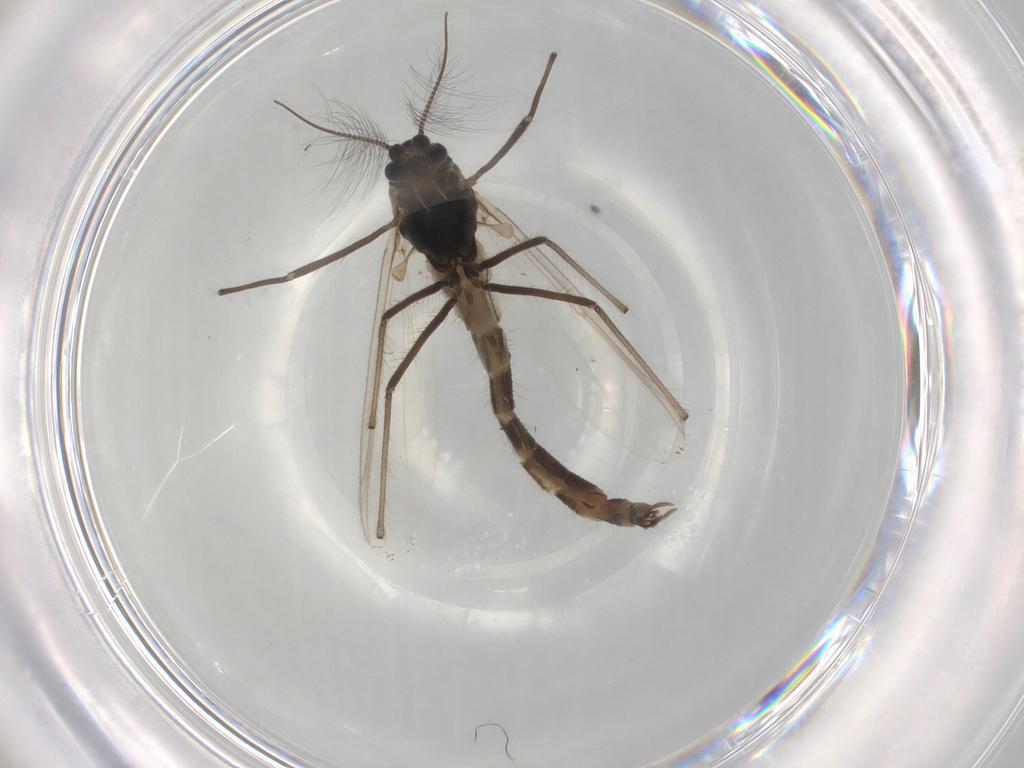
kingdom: Animalia
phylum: Arthropoda
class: Insecta
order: Diptera
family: Chironomidae
